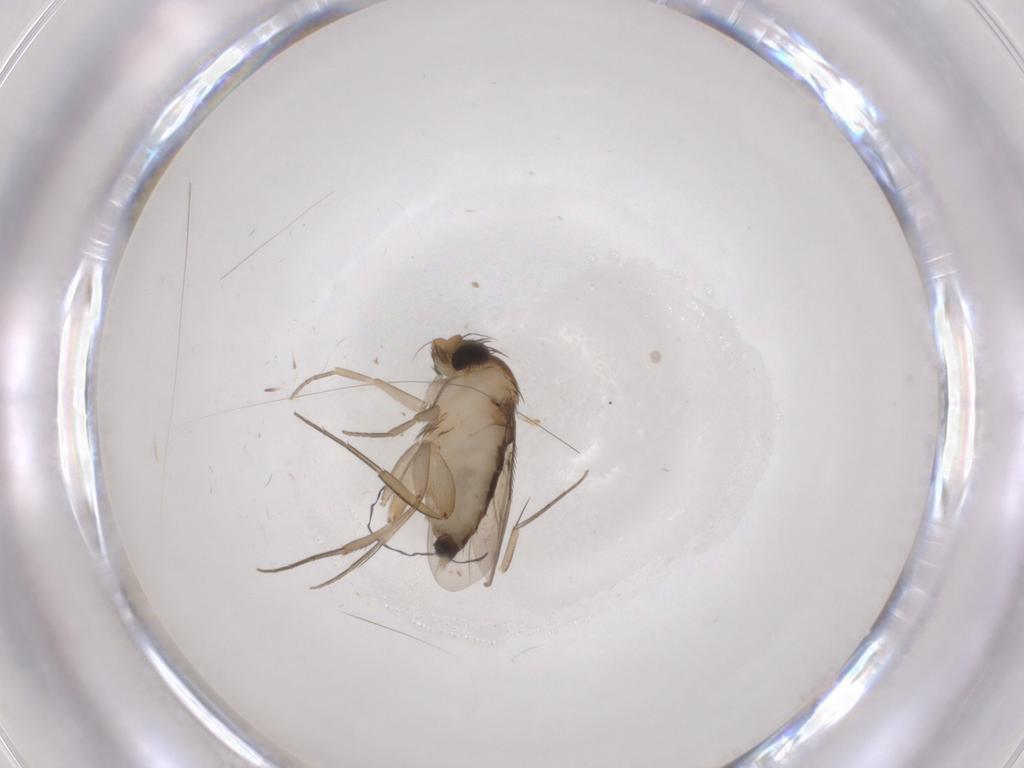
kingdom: Animalia
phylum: Arthropoda
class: Insecta
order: Diptera
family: Phoridae
